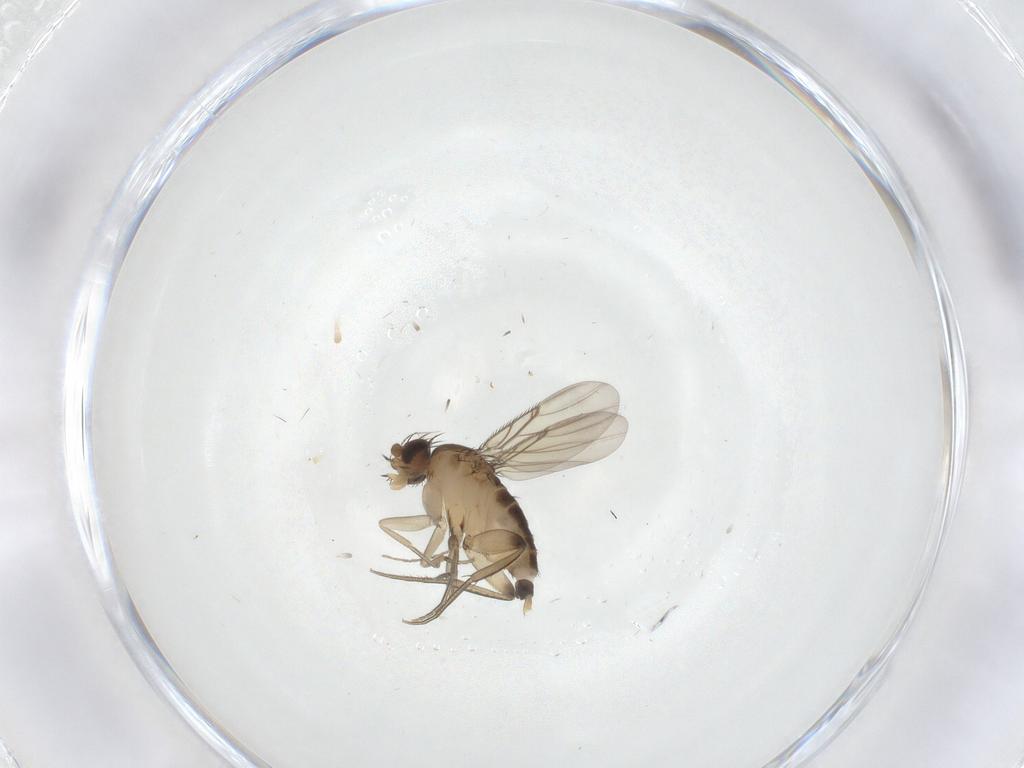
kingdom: Animalia
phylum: Arthropoda
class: Insecta
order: Diptera
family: Phoridae
